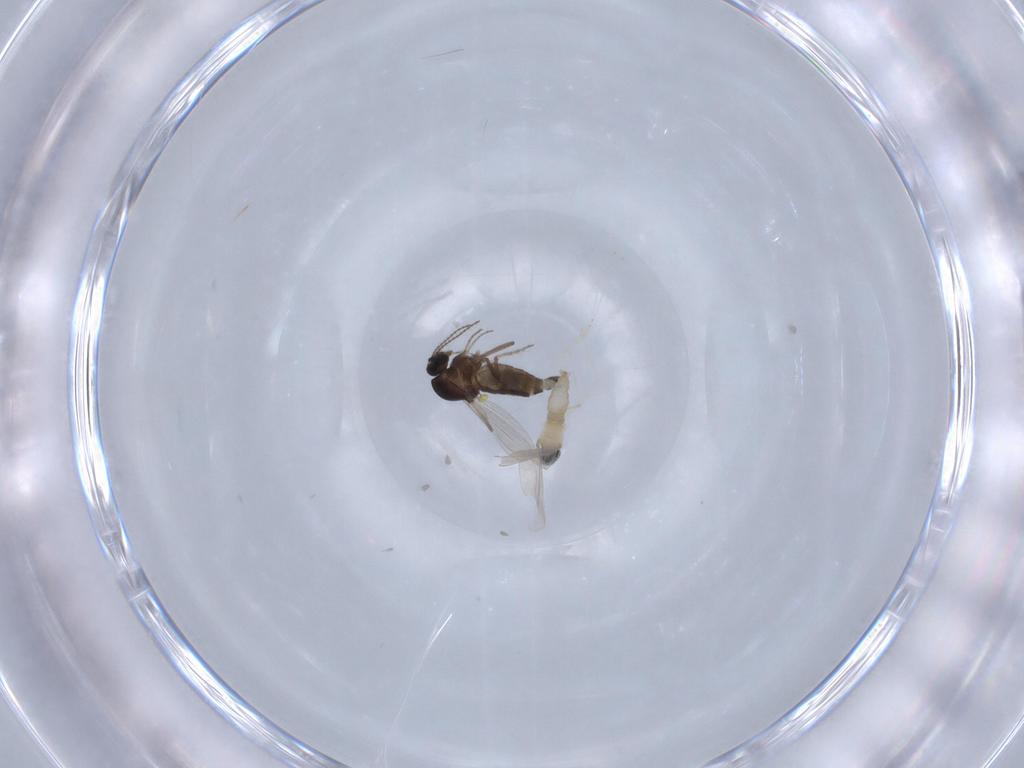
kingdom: Animalia
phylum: Arthropoda
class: Insecta
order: Diptera
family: Cecidomyiidae
